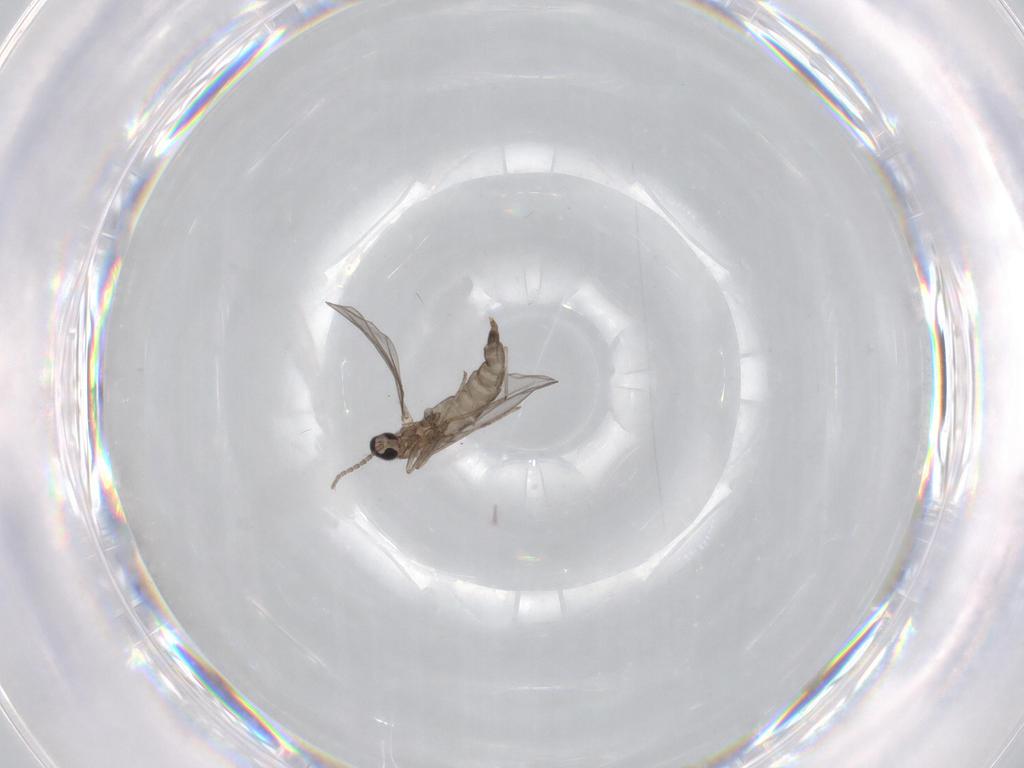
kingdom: Animalia
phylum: Arthropoda
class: Insecta
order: Diptera
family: Cecidomyiidae
